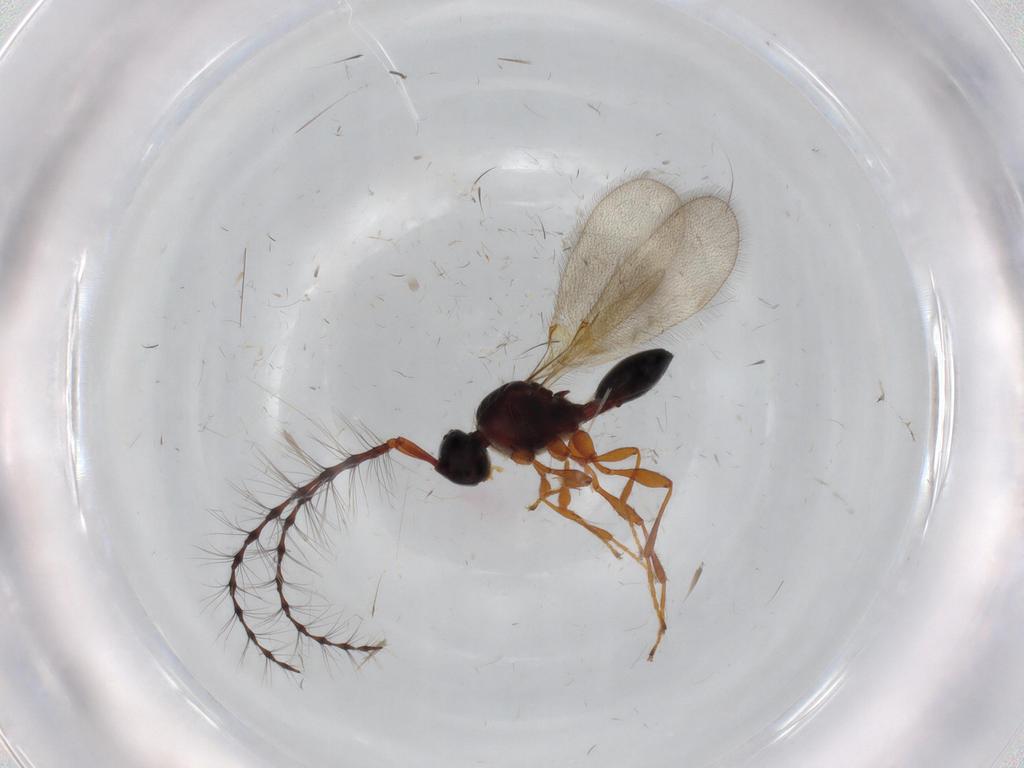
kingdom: Animalia
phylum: Arthropoda
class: Insecta
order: Hymenoptera
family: Diapriidae
